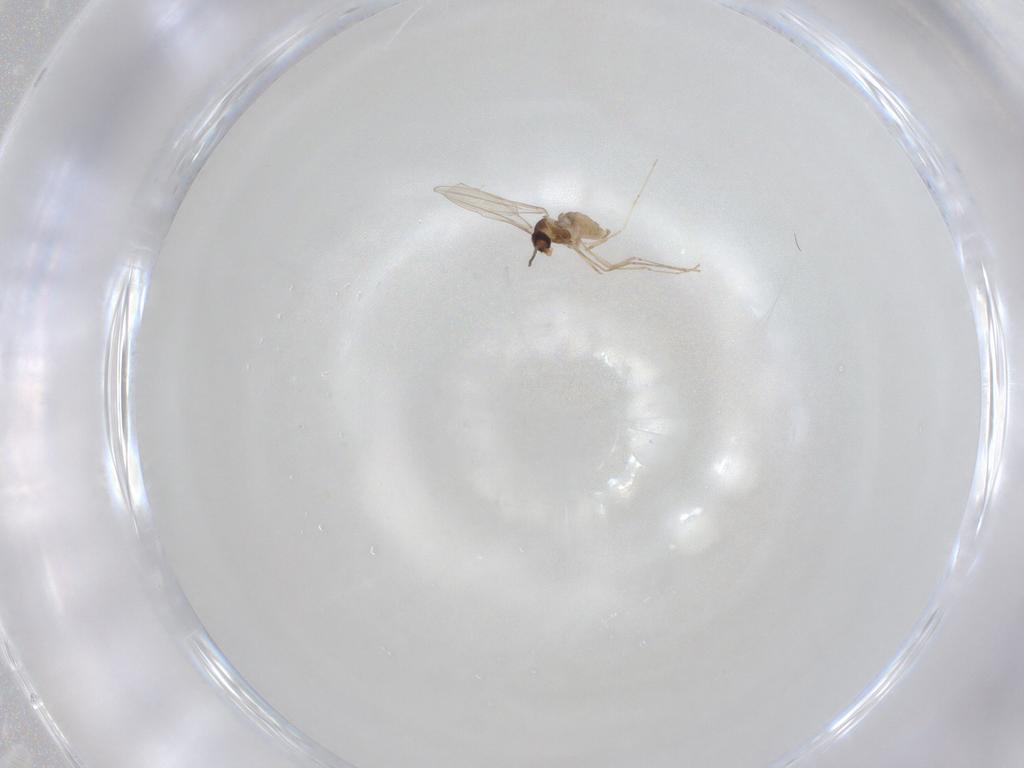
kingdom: Animalia
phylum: Arthropoda
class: Insecta
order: Diptera
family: Cecidomyiidae
